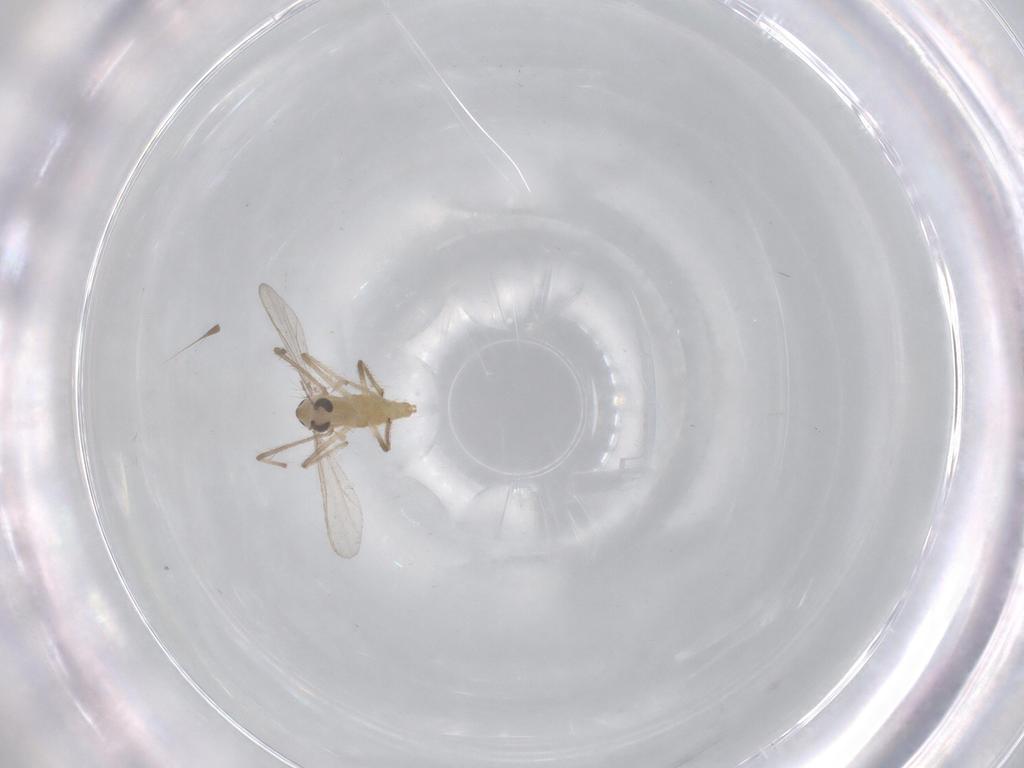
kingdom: Animalia
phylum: Arthropoda
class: Insecta
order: Diptera
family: Chironomidae
